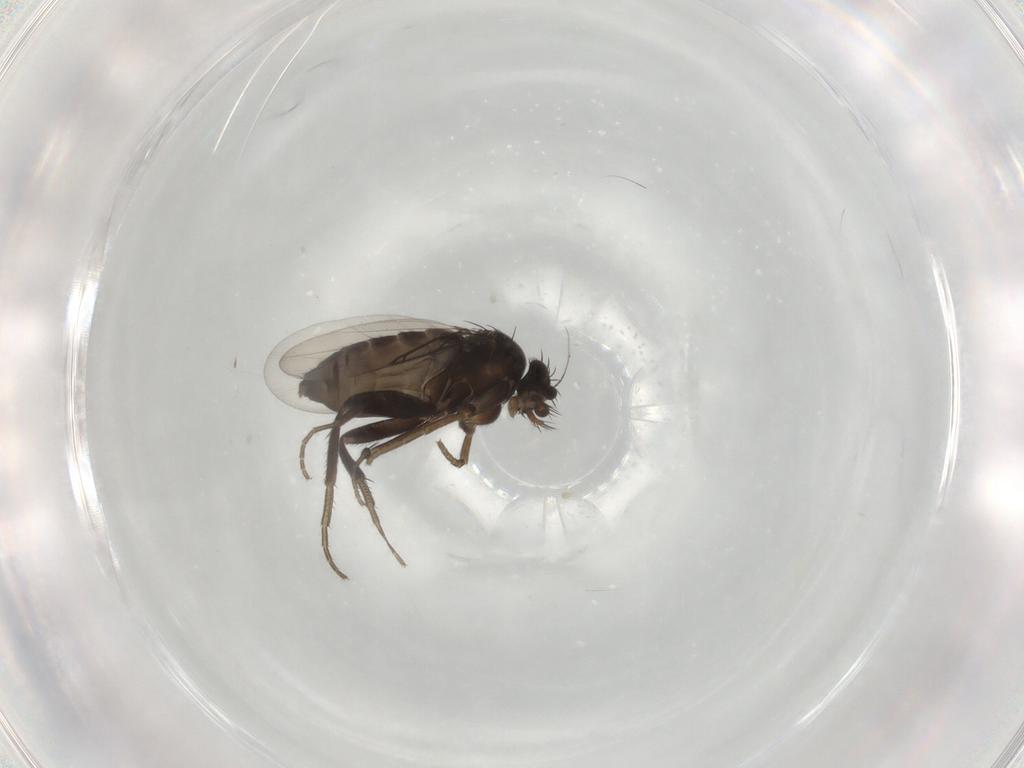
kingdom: Animalia
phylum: Arthropoda
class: Insecta
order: Diptera
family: Phoridae
